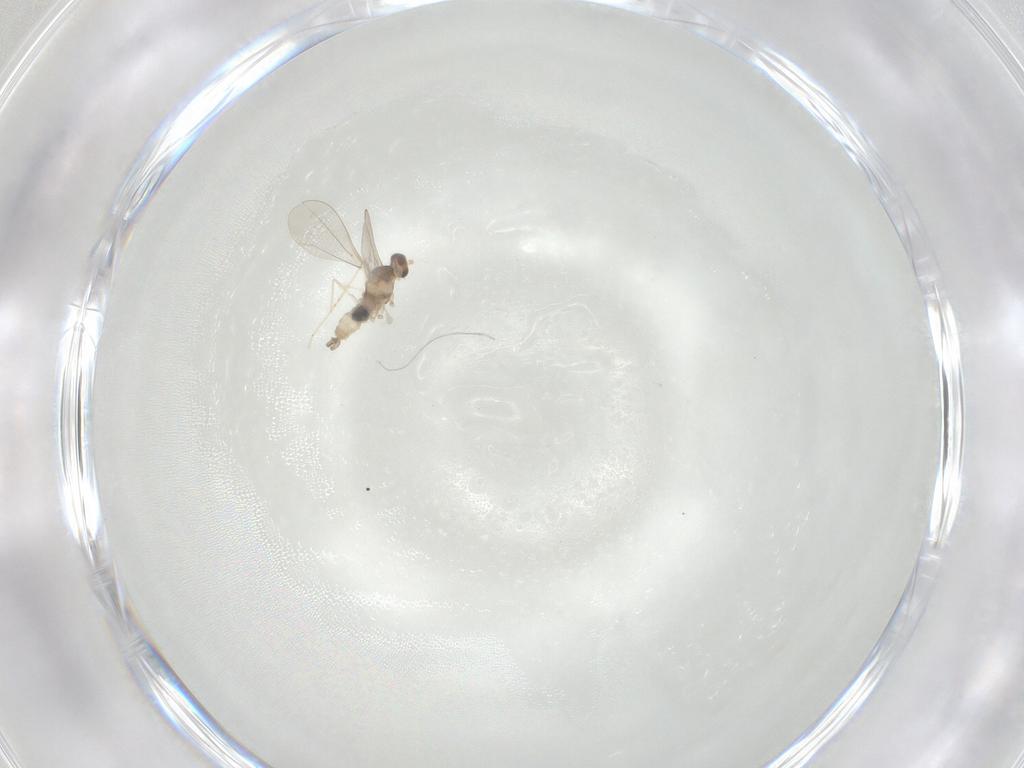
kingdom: Animalia
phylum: Arthropoda
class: Insecta
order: Diptera
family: Cecidomyiidae
